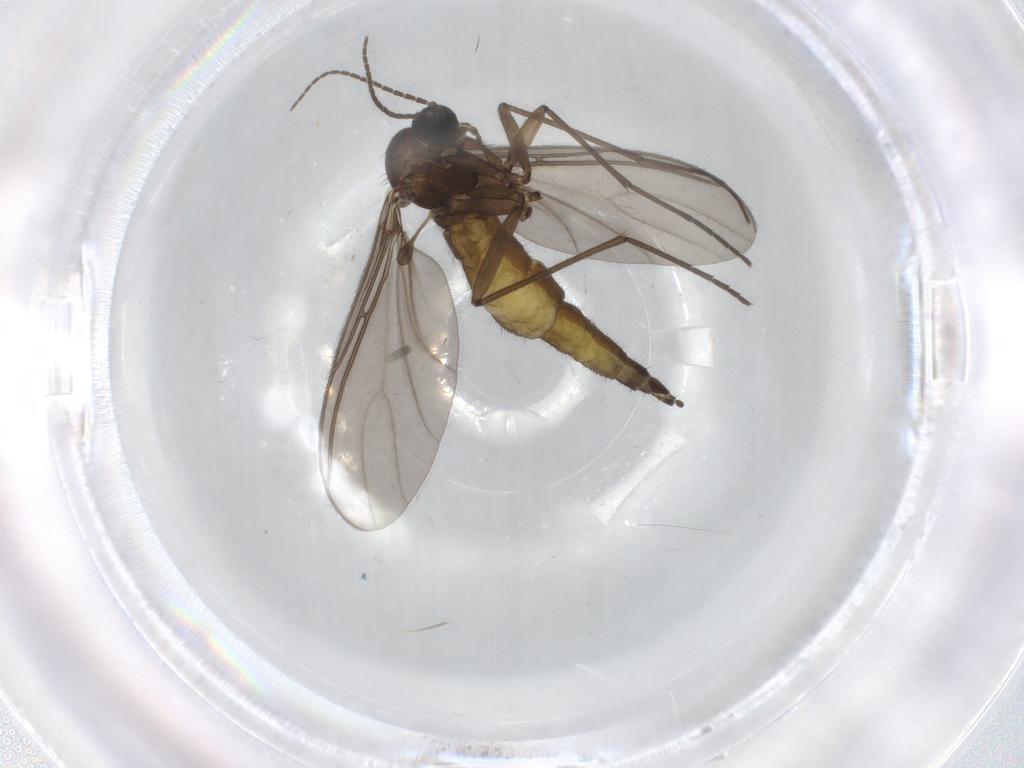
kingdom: Animalia
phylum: Arthropoda
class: Insecta
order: Diptera
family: Sciaridae
